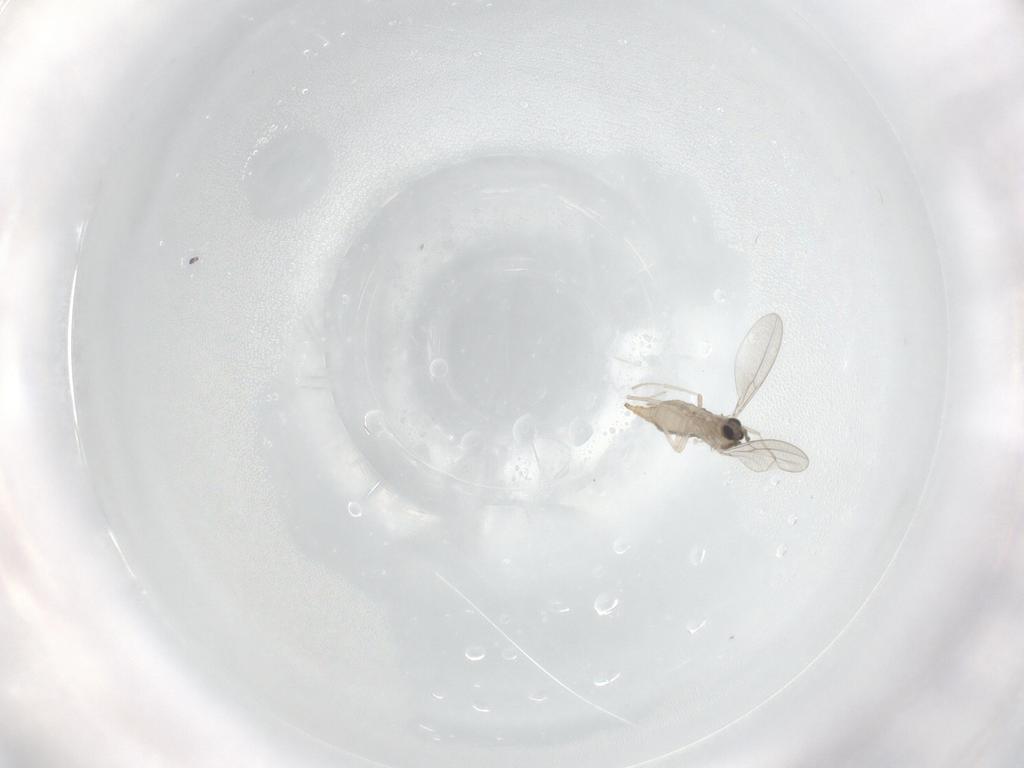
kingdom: Animalia
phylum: Arthropoda
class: Insecta
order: Diptera
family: Cecidomyiidae
